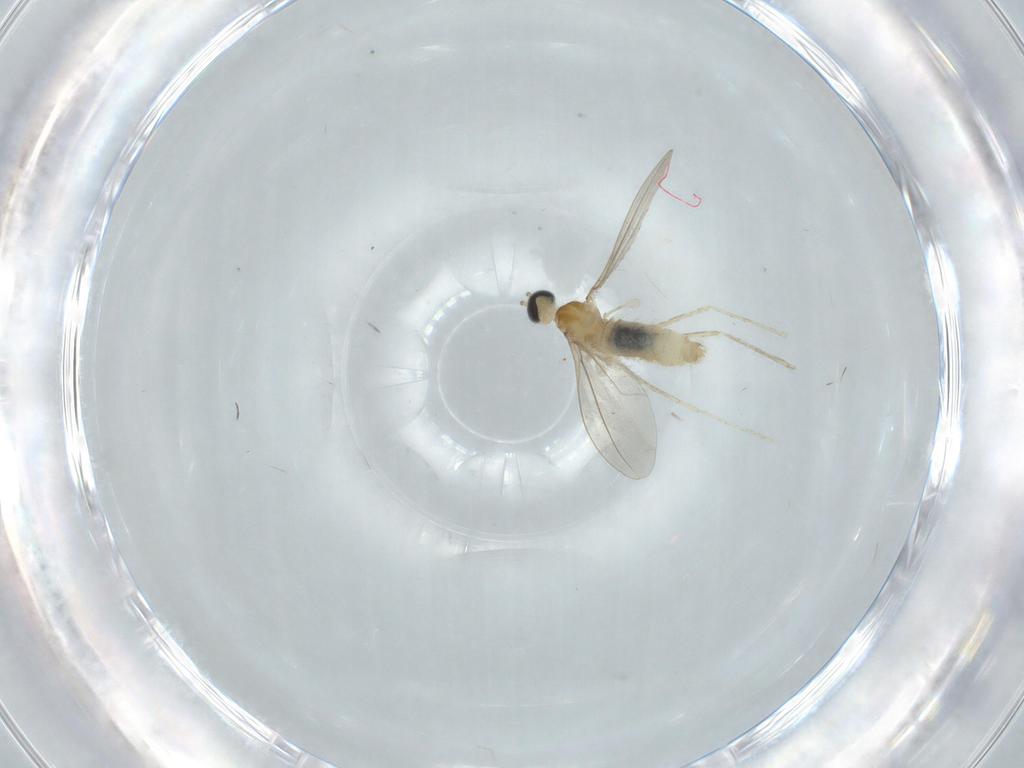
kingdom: Animalia
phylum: Arthropoda
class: Insecta
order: Diptera
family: Cecidomyiidae
